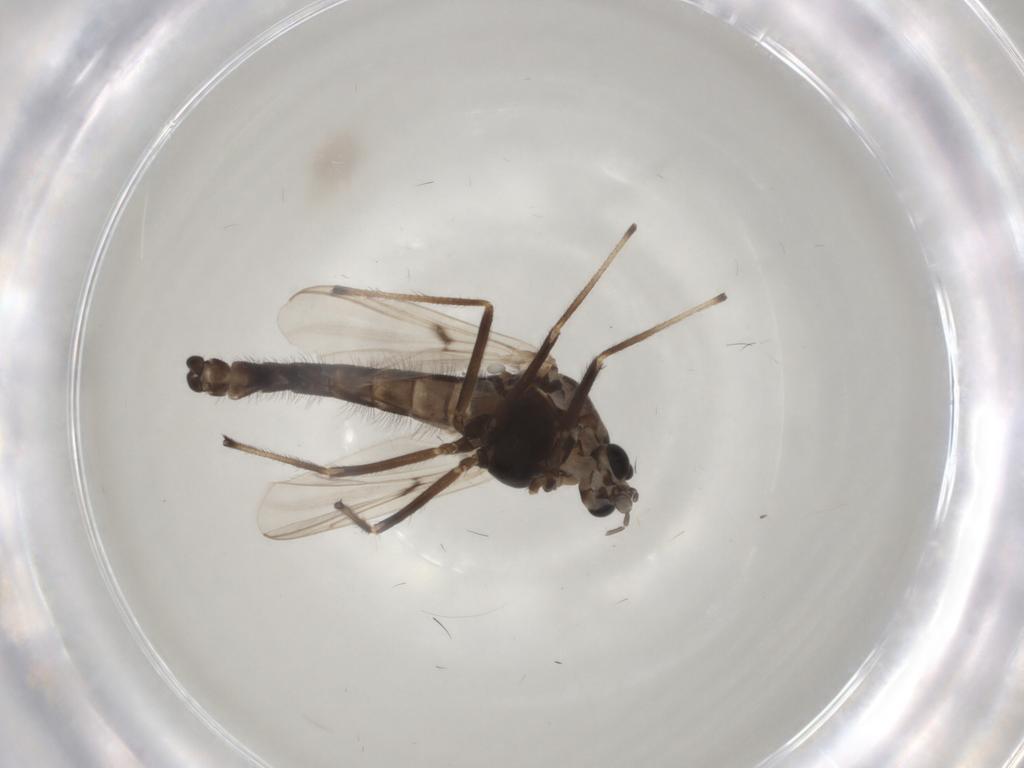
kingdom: Animalia
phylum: Arthropoda
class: Insecta
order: Diptera
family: Chironomidae
